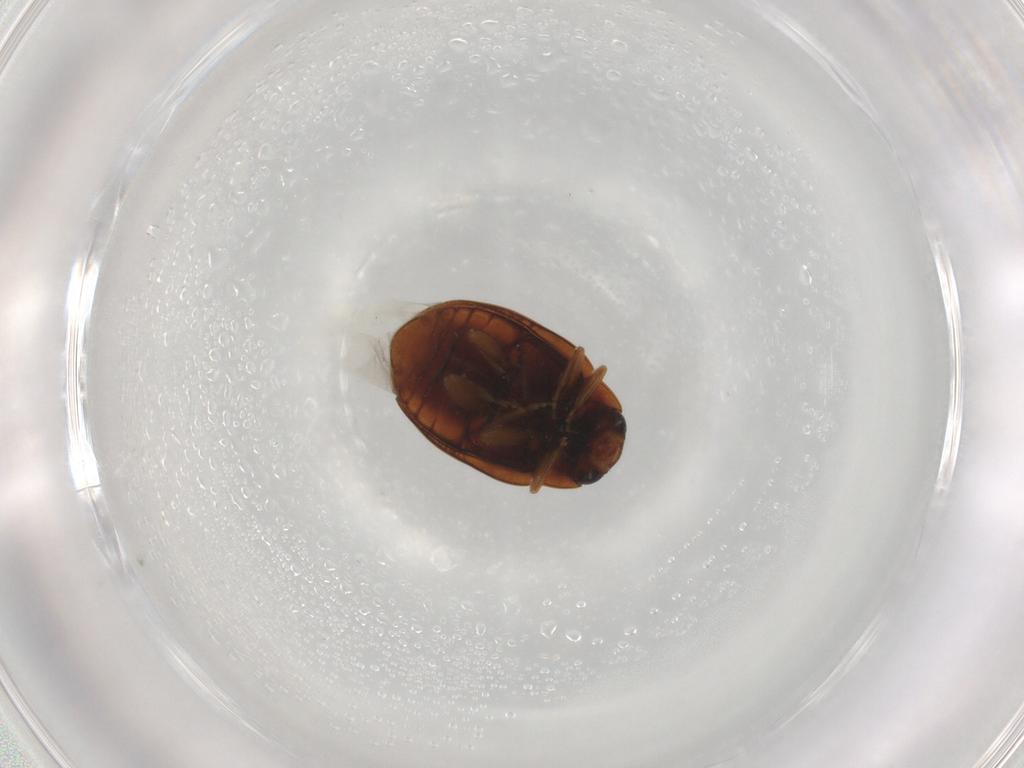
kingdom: Animalia
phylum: Arthropoda
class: Insecta
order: Coleoptera
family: Coccinellidae
